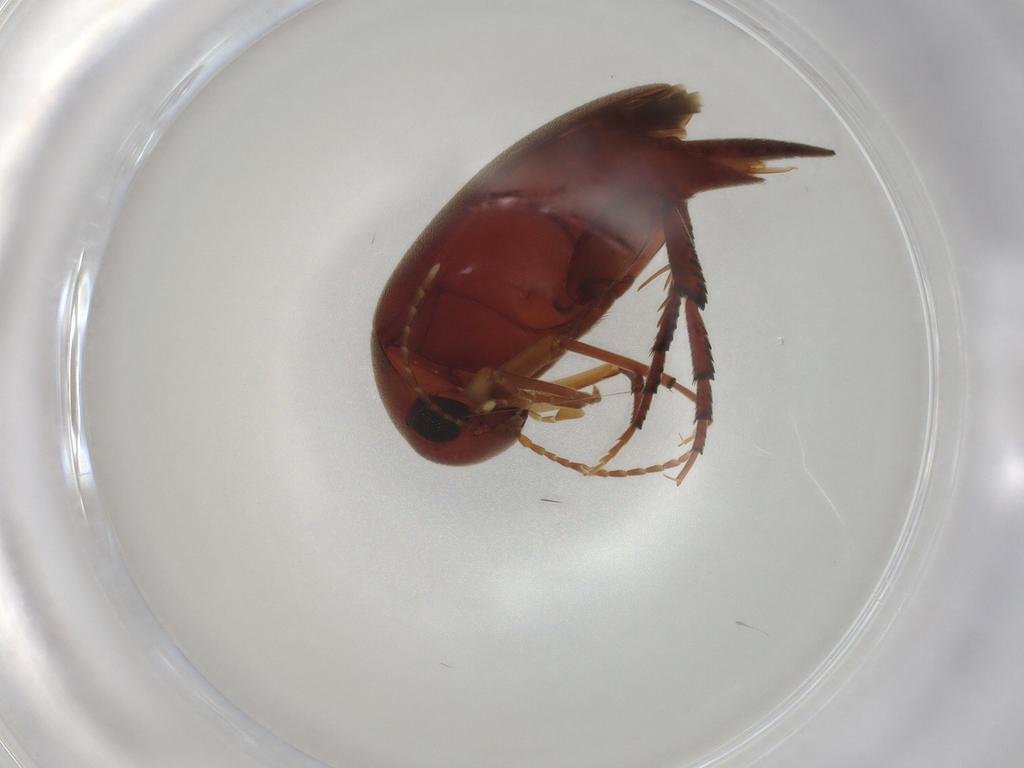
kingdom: Animalia
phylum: Arthropoda
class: Insecta
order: Coleoptera
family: Mordellidae
